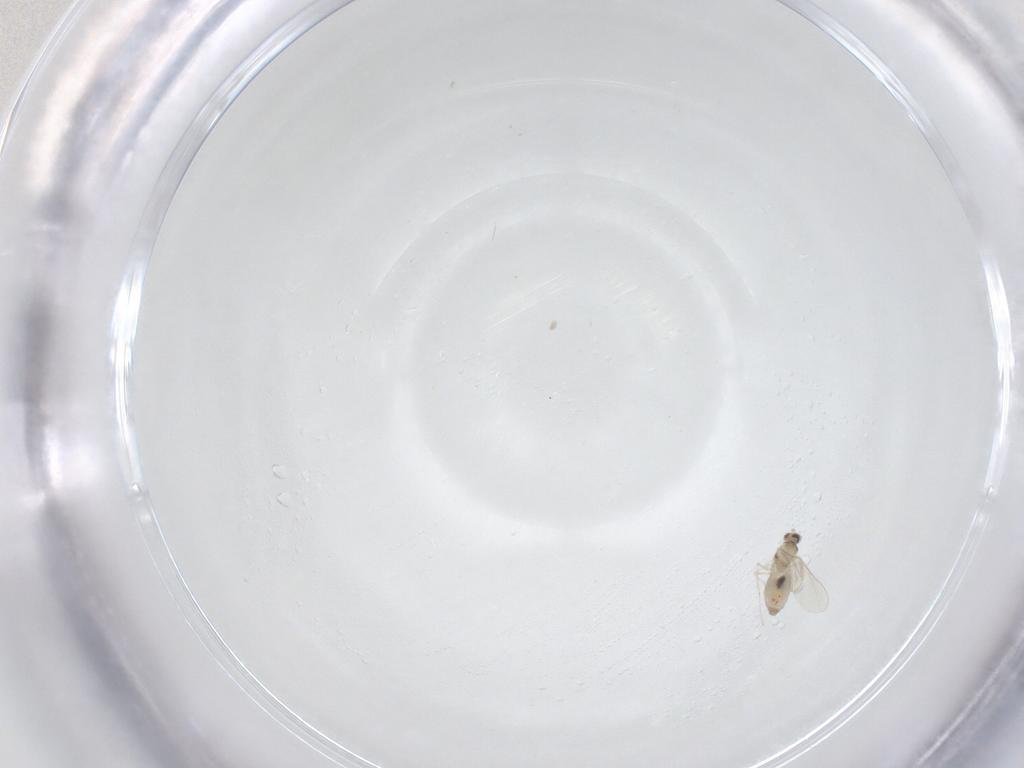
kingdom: Animalia
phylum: Arthropoda
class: Insecta
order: Diptera
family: Cecidomyiidae
